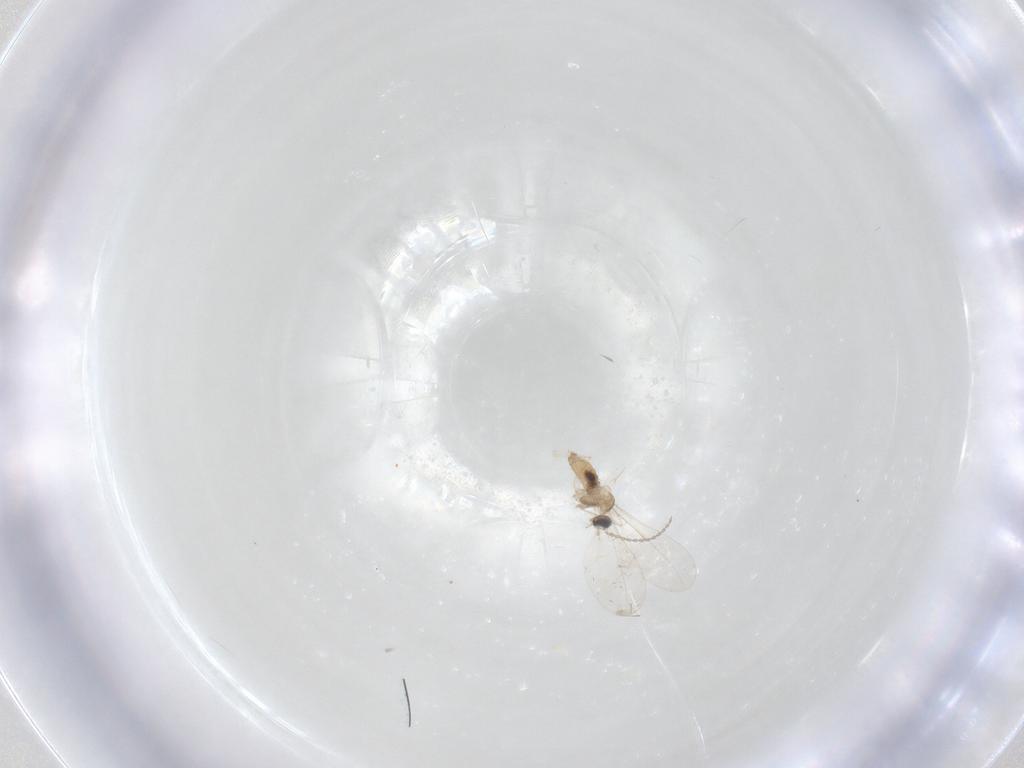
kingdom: Animalia
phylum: Arthropoda
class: Insecta
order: Diptera
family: Cecidomyiidae
